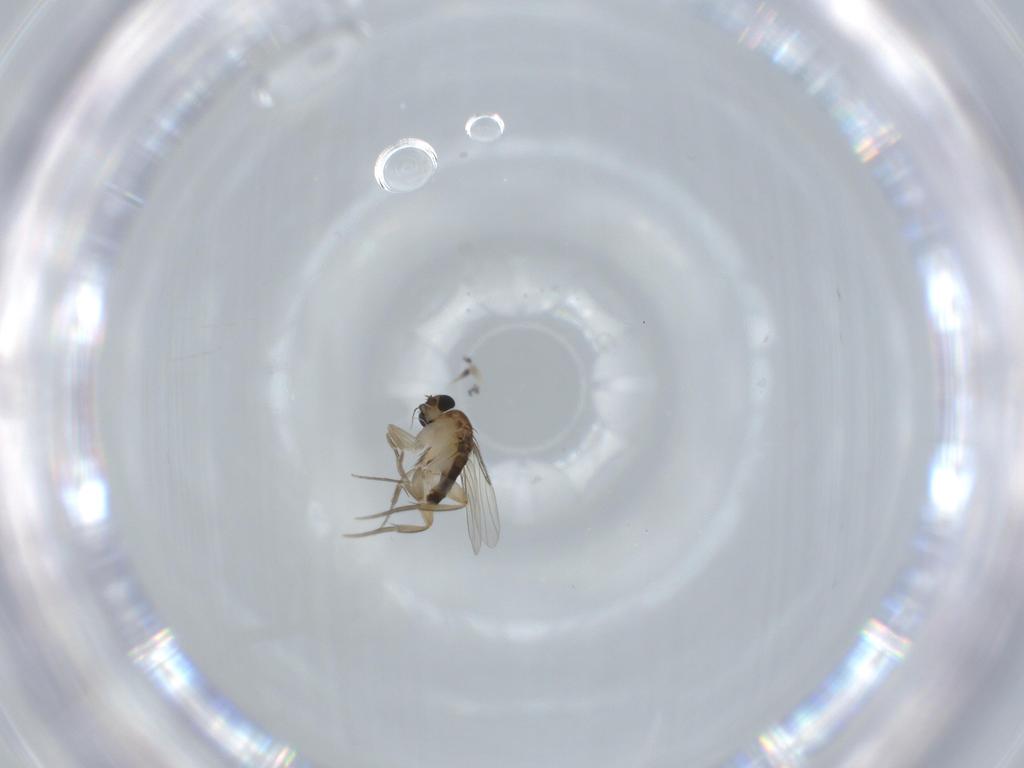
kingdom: Animalia
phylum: Arthropoda
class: Insecta
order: Diptera
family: Phoridae
